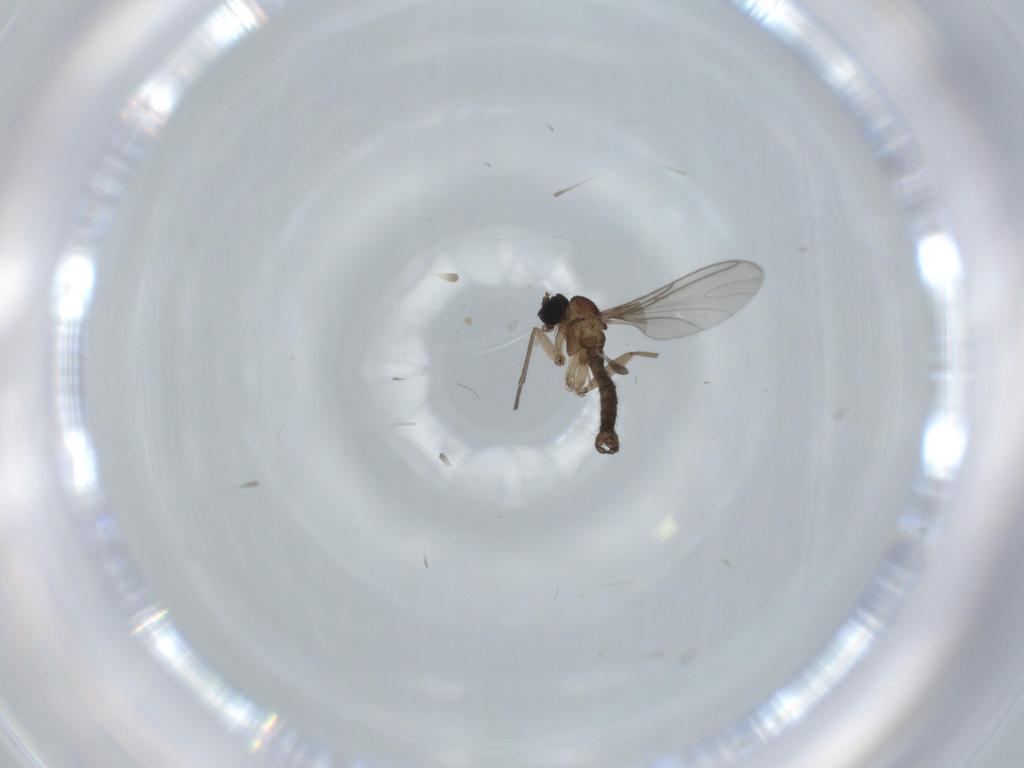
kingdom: Animalia
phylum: Arthropoda
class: Insecta
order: Diptera
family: Sciaridae
